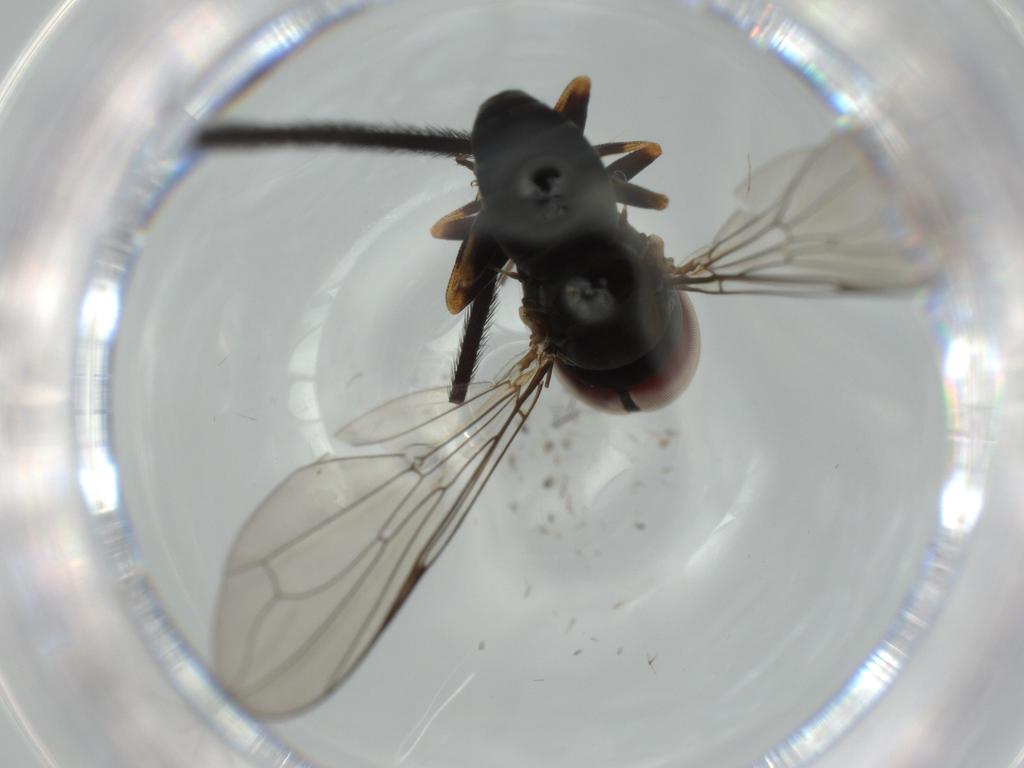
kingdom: Animalia
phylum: Arthropoda
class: Insecta
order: Diptera
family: Limoniidae
